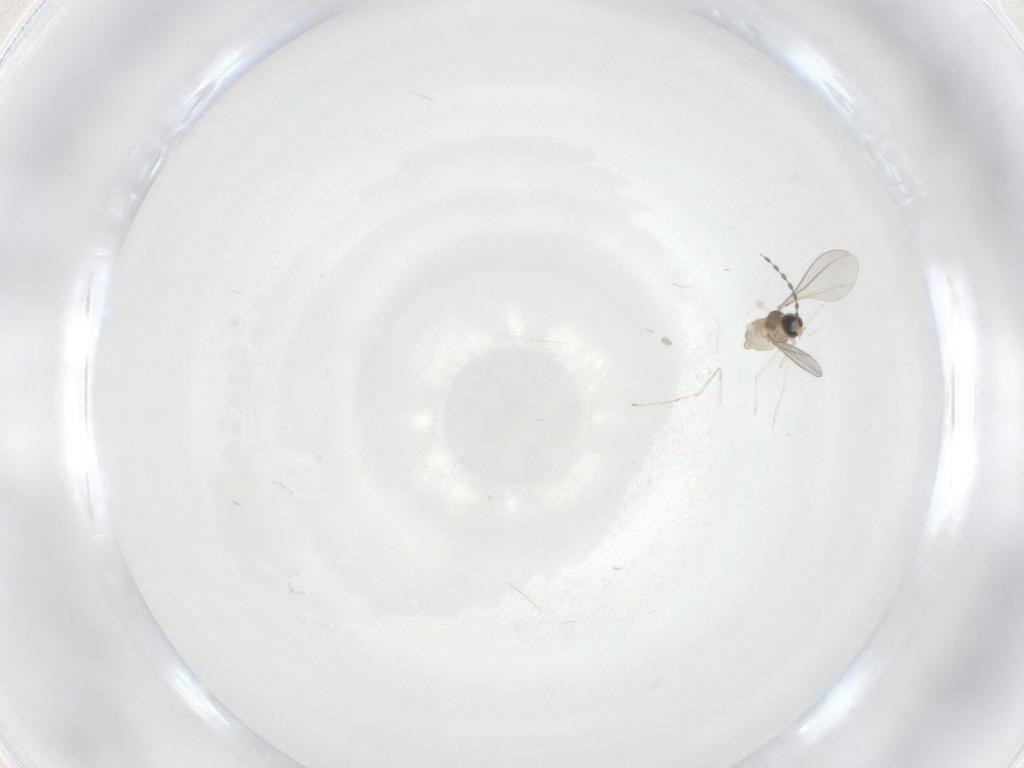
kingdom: Animalia
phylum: Arthropoda
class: Insecta
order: Diptera
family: Cecidomyiidae
